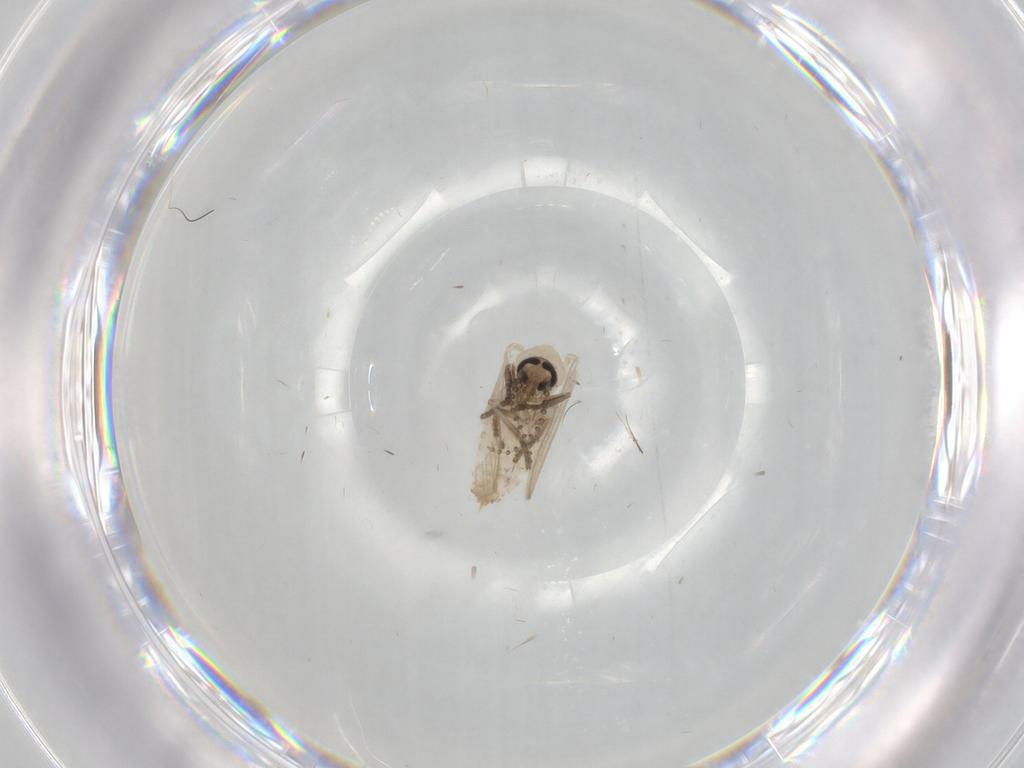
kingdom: Animalia
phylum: Arthropoda
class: Insecta
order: Diptera
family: Psychodidae
